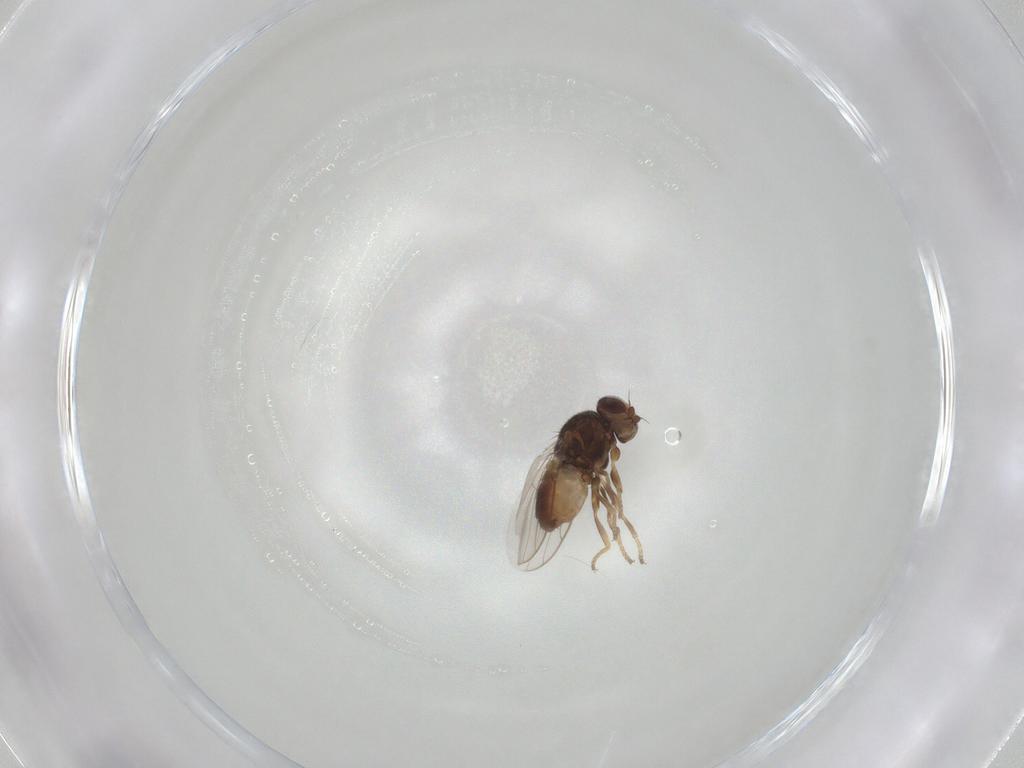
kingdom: Animalia
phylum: Arthropoda
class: Insecta
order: Diptera
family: Chloropidae
